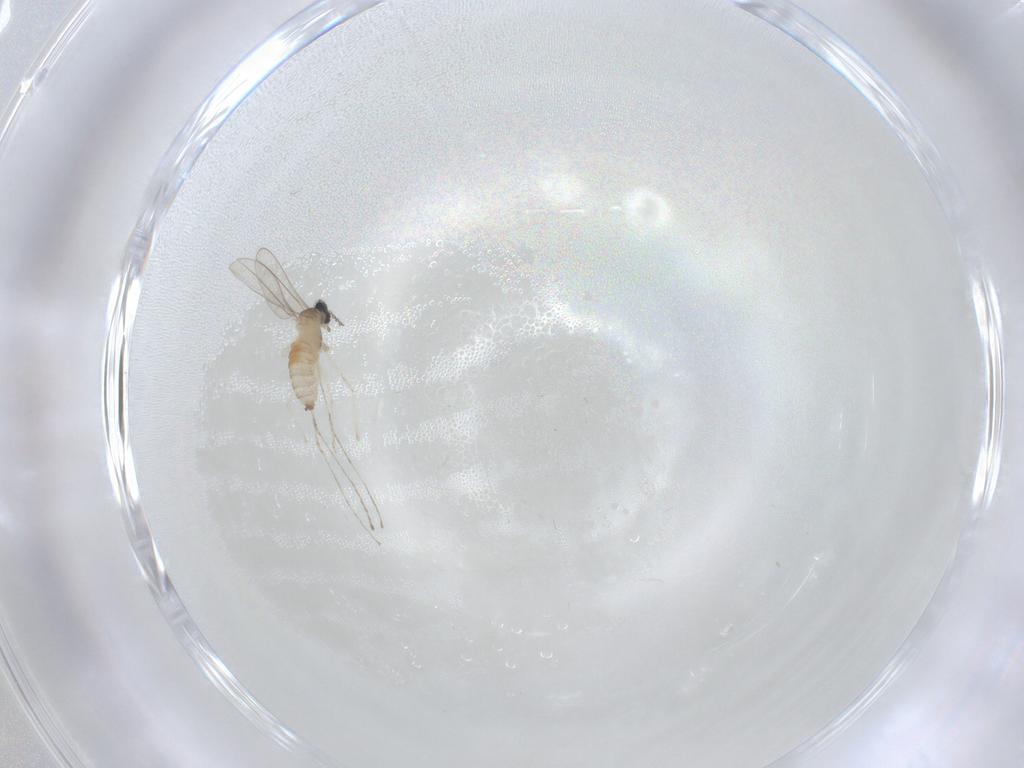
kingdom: Animalia
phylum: Arthropoda
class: Insecta
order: Diptera
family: Cecidomyiidae
